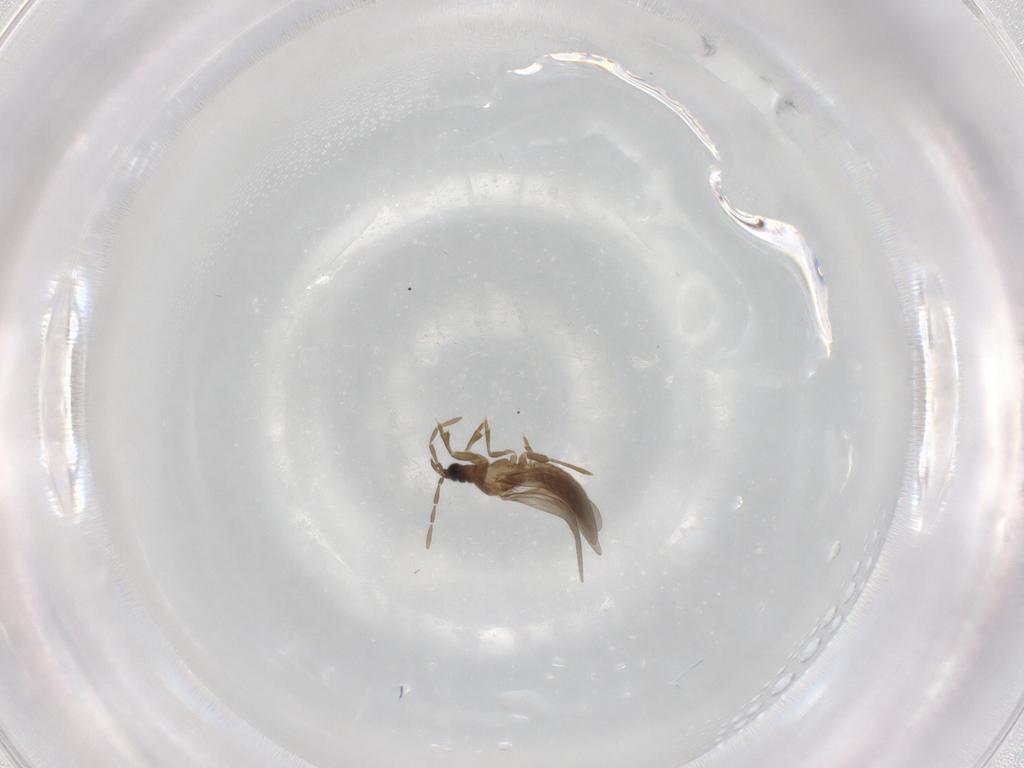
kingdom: Animalia
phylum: Arthropoda
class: Insecta
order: Hemiptera
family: Enicocephalidae
